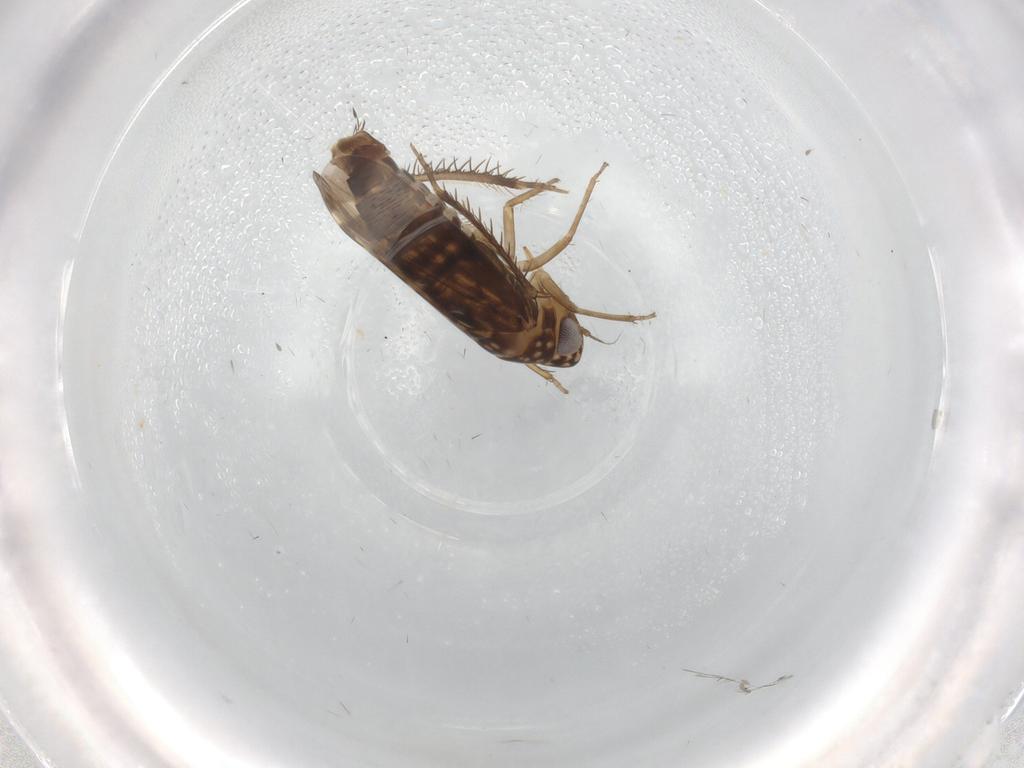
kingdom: Animalia
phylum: Arthropoda
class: Insecta
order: Hemiptera
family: Cicadellidae
